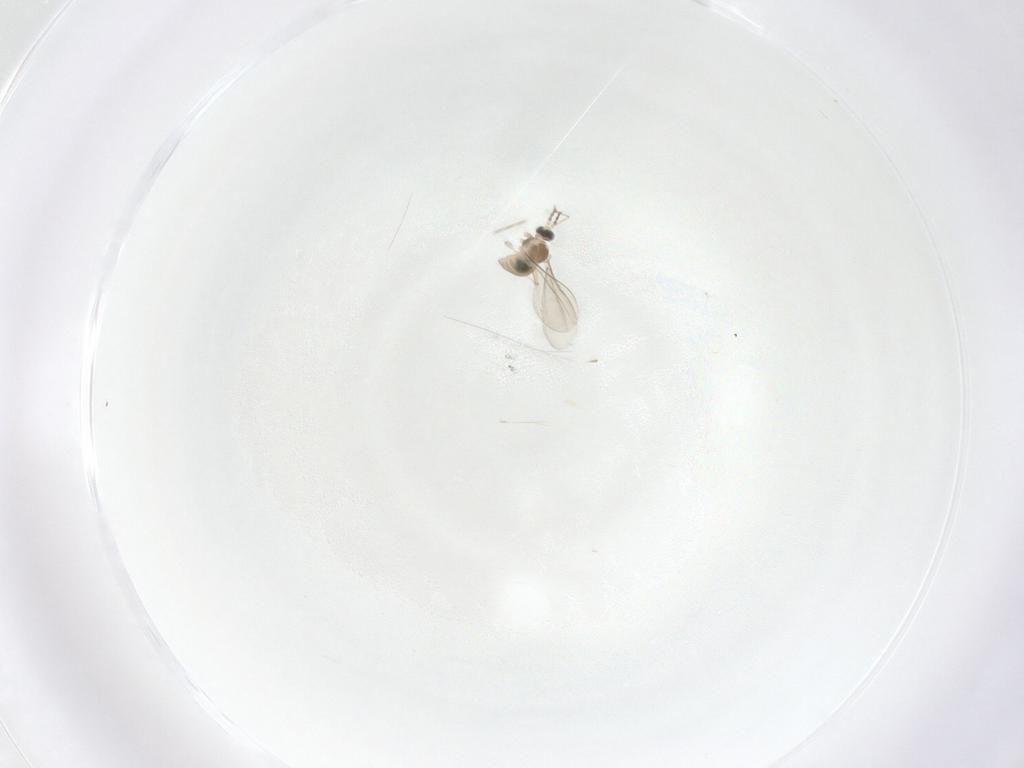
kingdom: Animalia
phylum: Arthropoda
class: Insecta
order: Diptera
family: Cecidomyiidae
